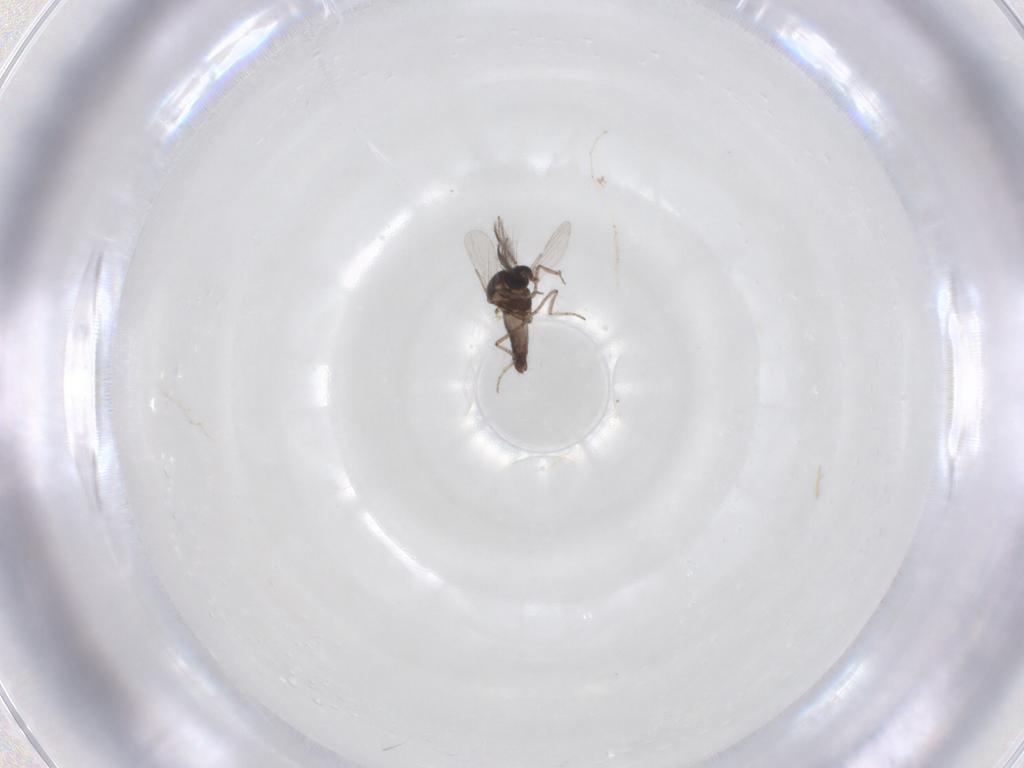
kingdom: Animalia
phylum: Arthropoda
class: Insecta
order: Diptera
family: Ceratopogonidae
